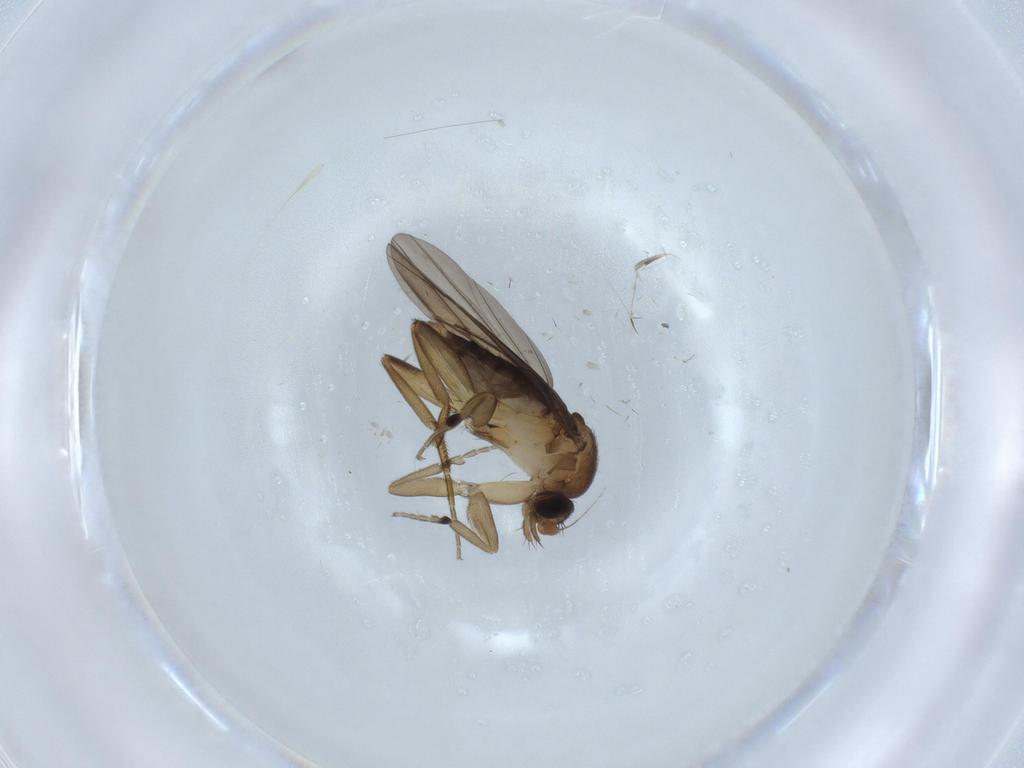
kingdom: Animalia
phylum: Arthropoda
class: Insecta
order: Diptera
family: Phoridae
